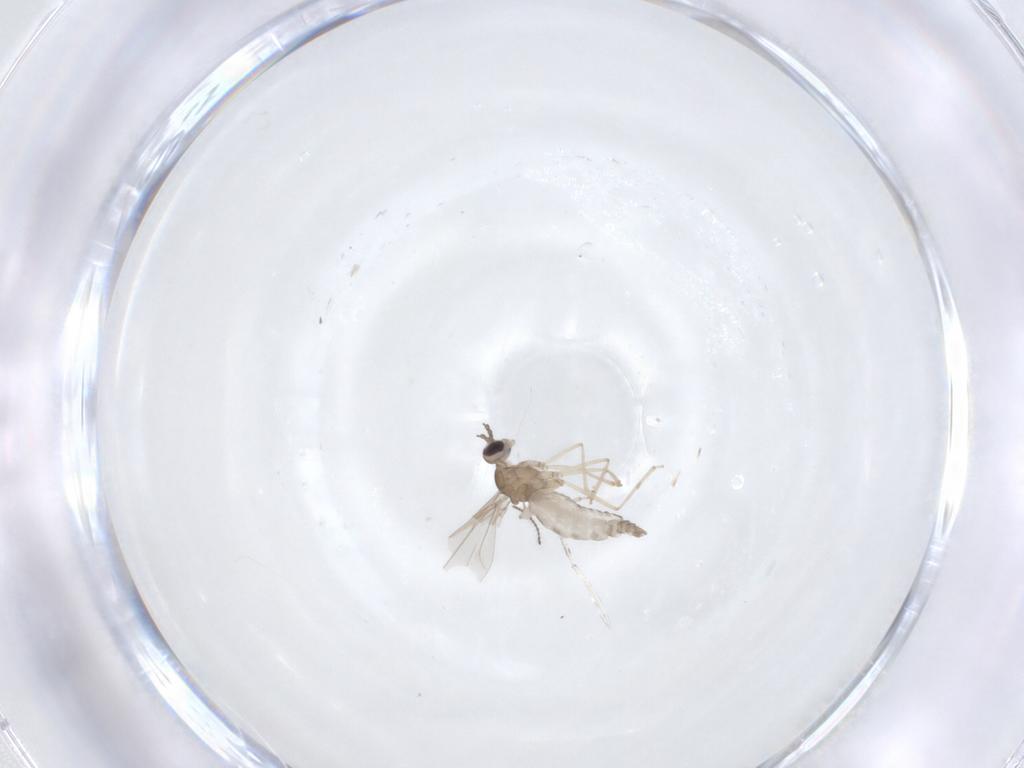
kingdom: Animalia
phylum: Arthropoda
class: Insecta
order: Diptera
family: Cecidomyiidae
